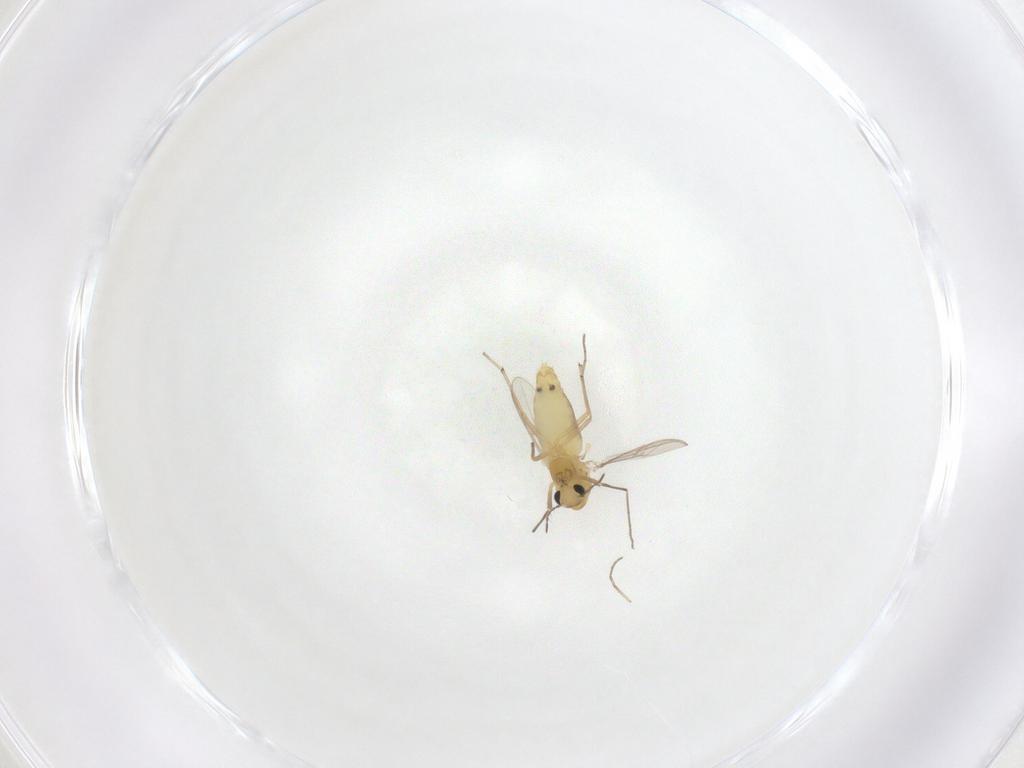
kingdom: Animalia
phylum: Arthropoda
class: Insecta
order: Diptera
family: Chironomidae
